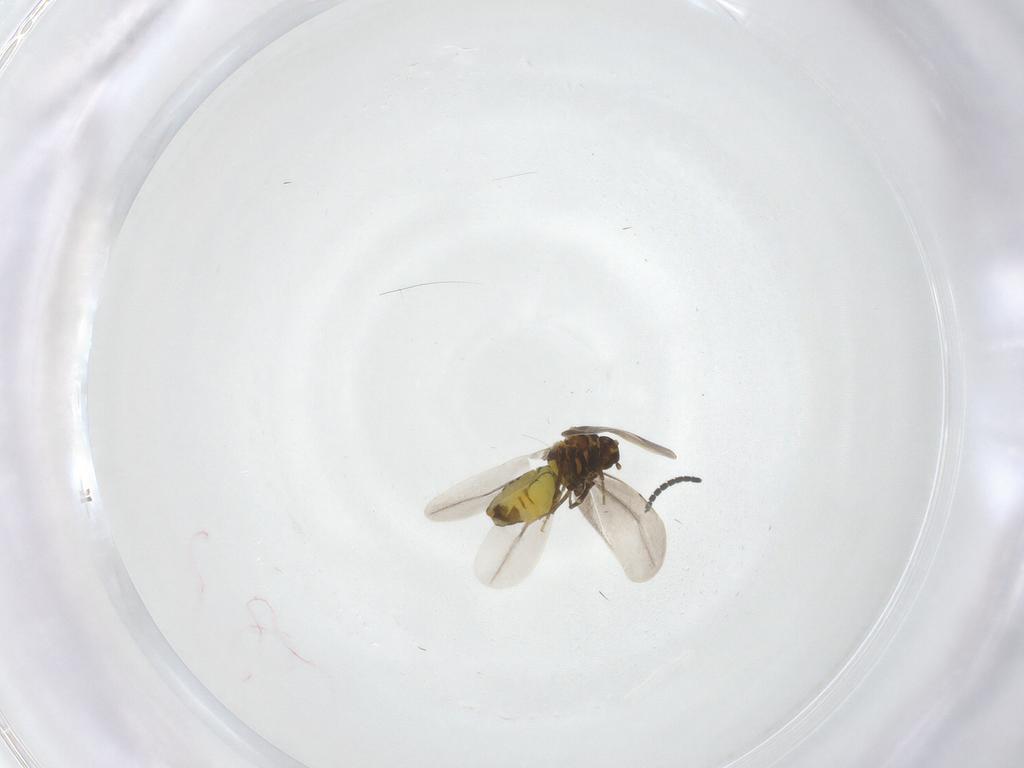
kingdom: Animalia
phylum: Arthropoda
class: Insecta
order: Hemiptera
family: Aleyrodidae
